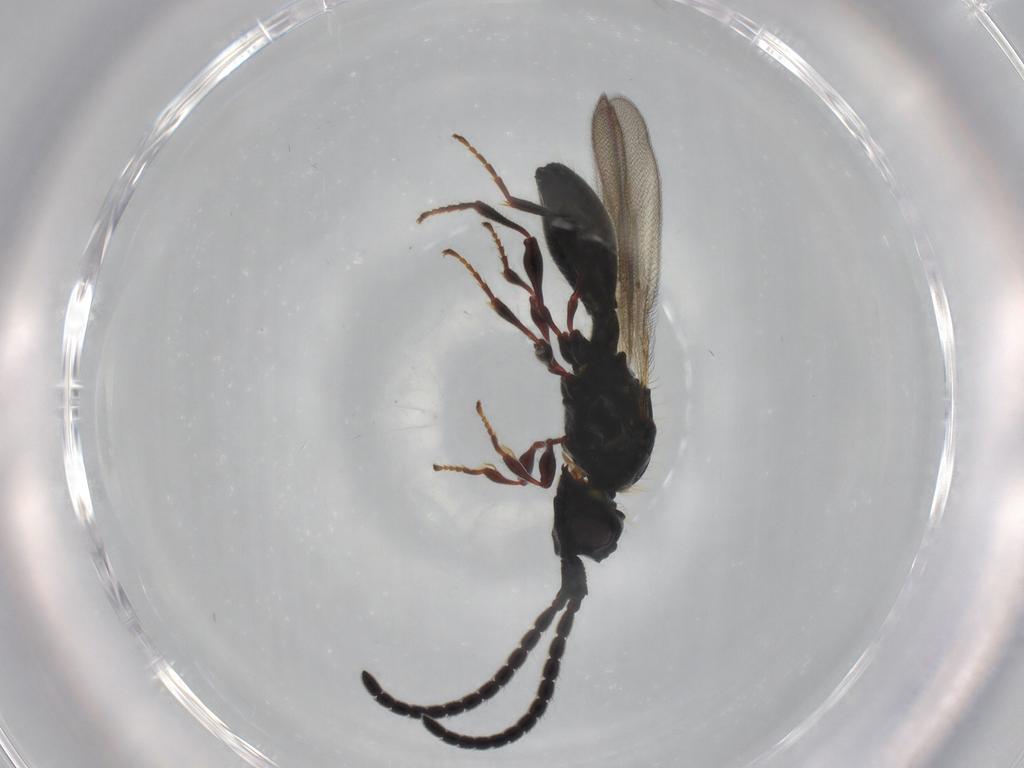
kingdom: Animalia
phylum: Arthropoda
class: Insecta
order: Hymenoptera
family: Diapriidae
